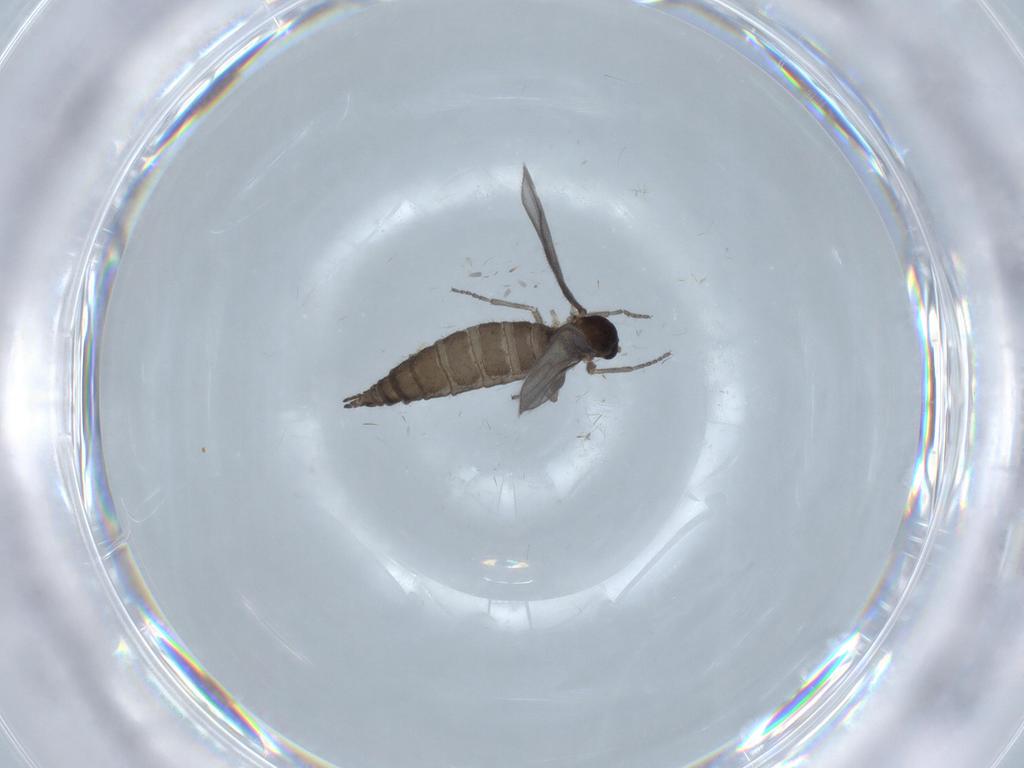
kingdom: Animalia
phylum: Arthropoda
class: Insecta
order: Diptera
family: Sciaridae
